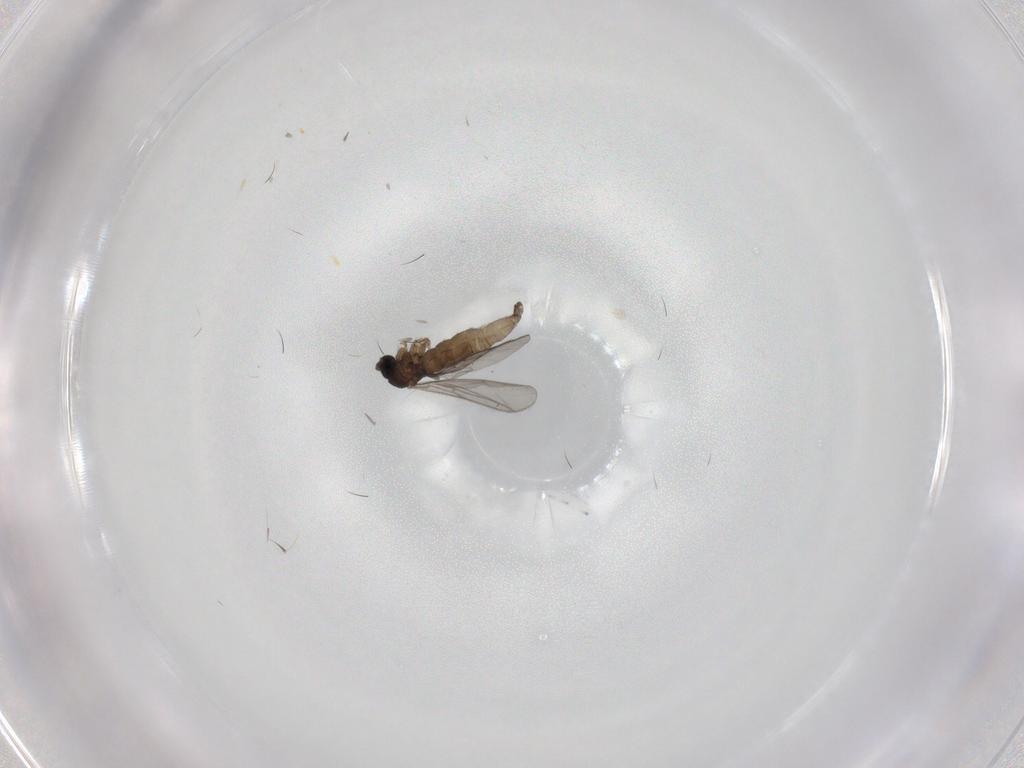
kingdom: Animalia
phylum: Arthropoda
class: Insecta
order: Diptera
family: Sciaridae
